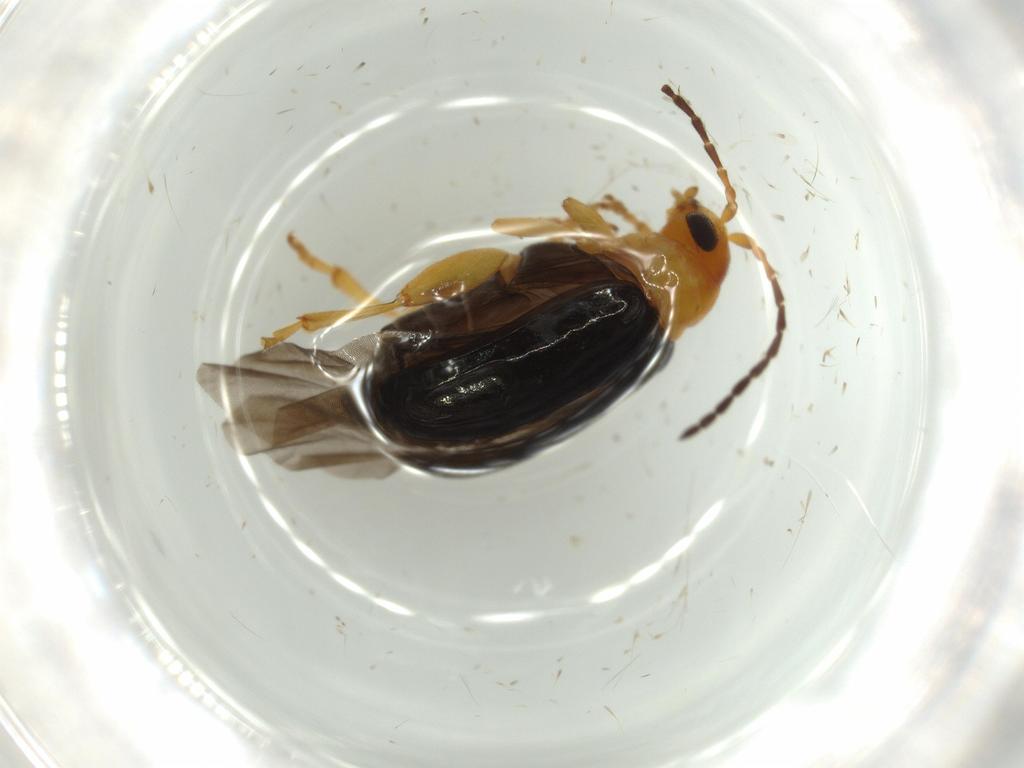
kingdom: Animalia
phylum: Arthropoda
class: Insecta
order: Coleoptera
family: Chrysomelidae
